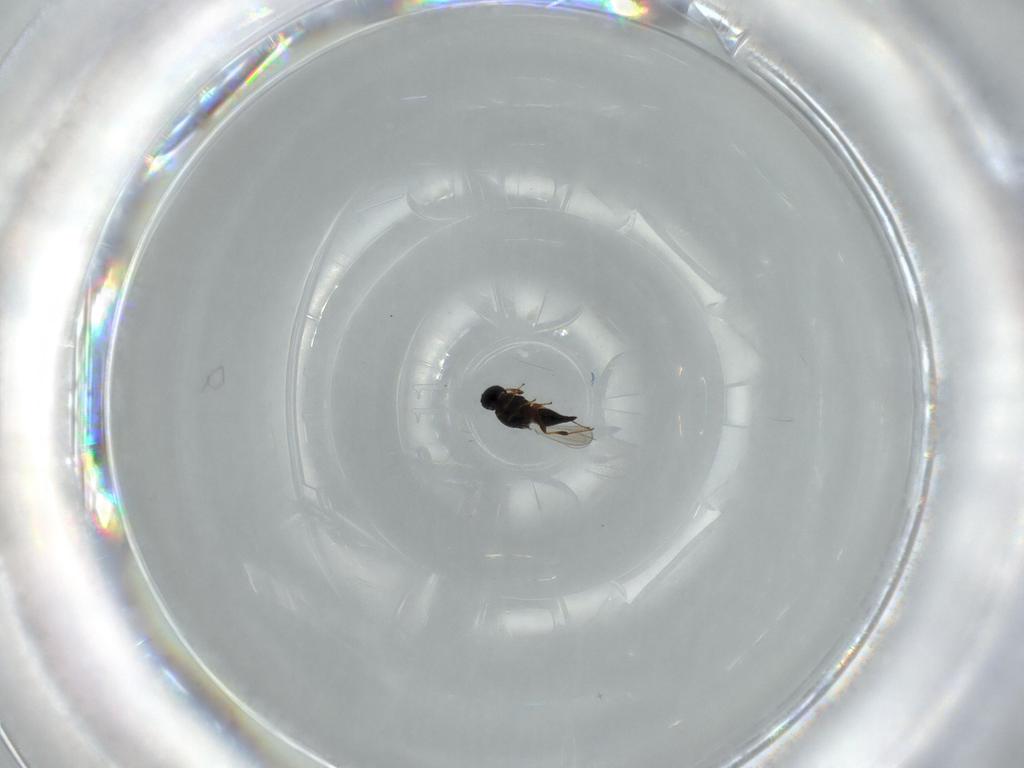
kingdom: Animalia
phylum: Arthropoda
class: Insecta
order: Hymenoptera
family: Platygastridae
